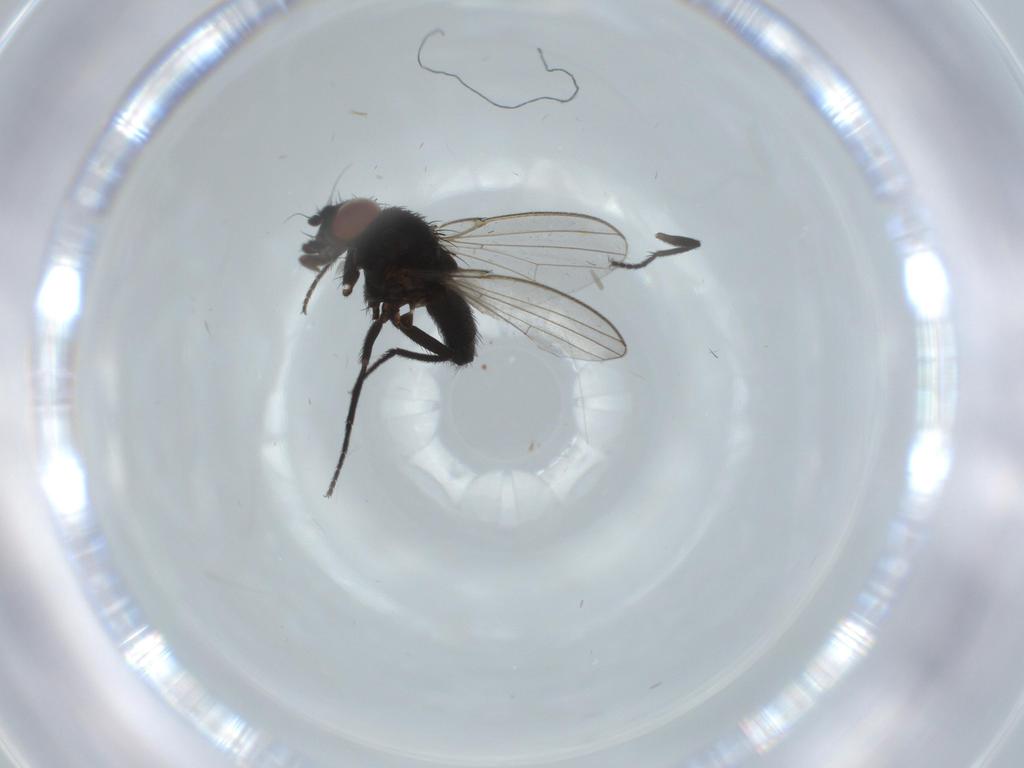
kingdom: Animalia
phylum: Arthropoda
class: Insecta
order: Diptera
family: Milichiidae
